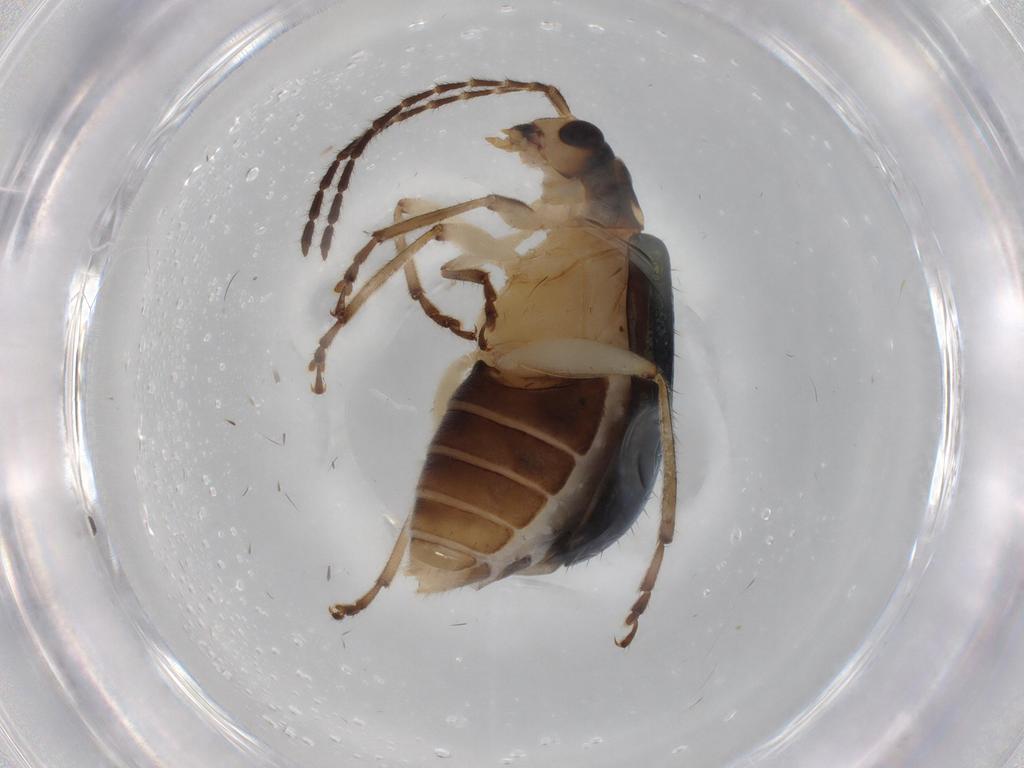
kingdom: Animalia
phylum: Arthropoda
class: Insecta
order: Coleoptera
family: Chrysomelidae
